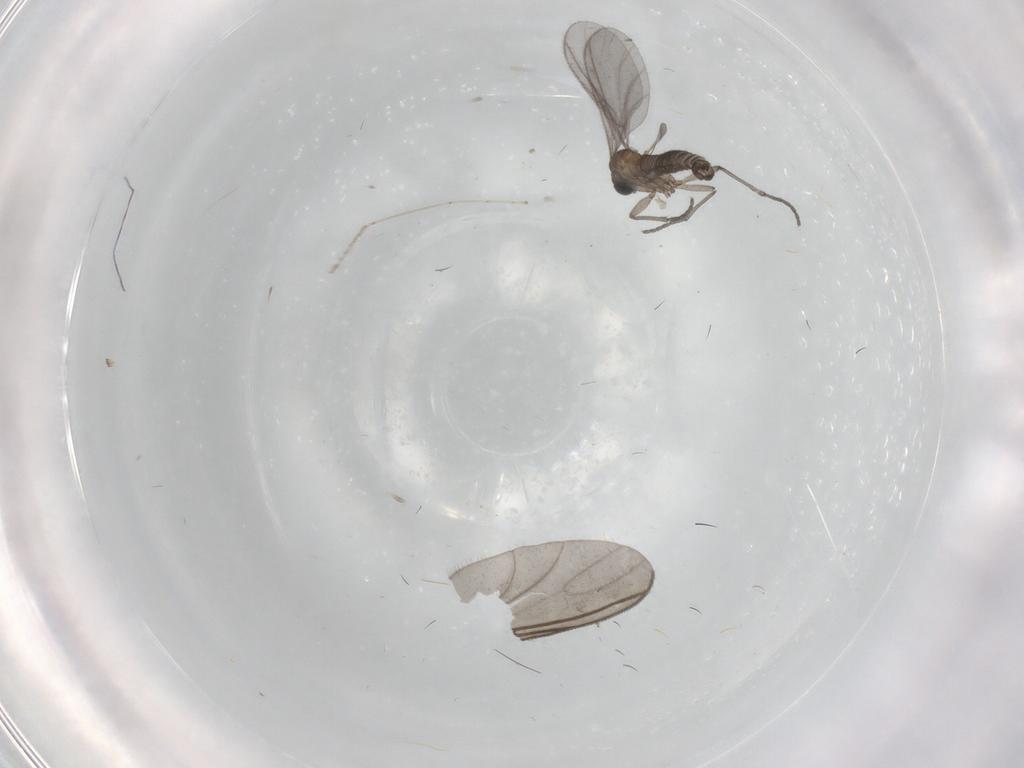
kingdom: Animalia
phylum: Arthropoda
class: Insecta
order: Diptera
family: Sciaridae
